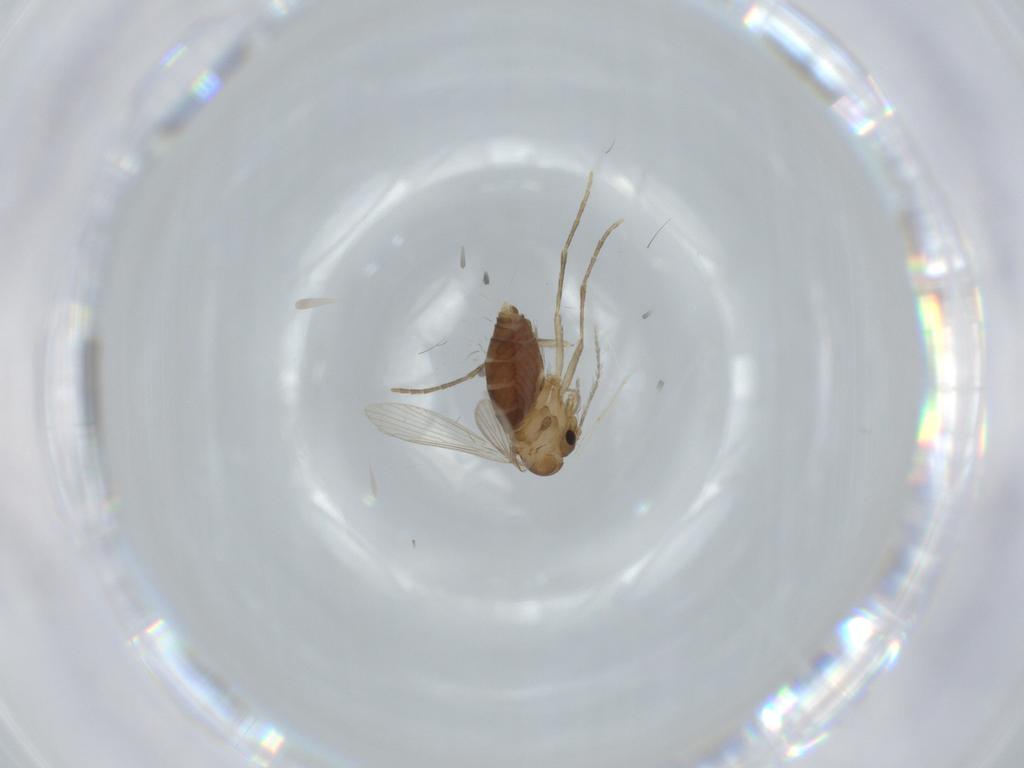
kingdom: Animalia
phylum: Arthropoda
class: Insecta
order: Diptera
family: Psychodidae
